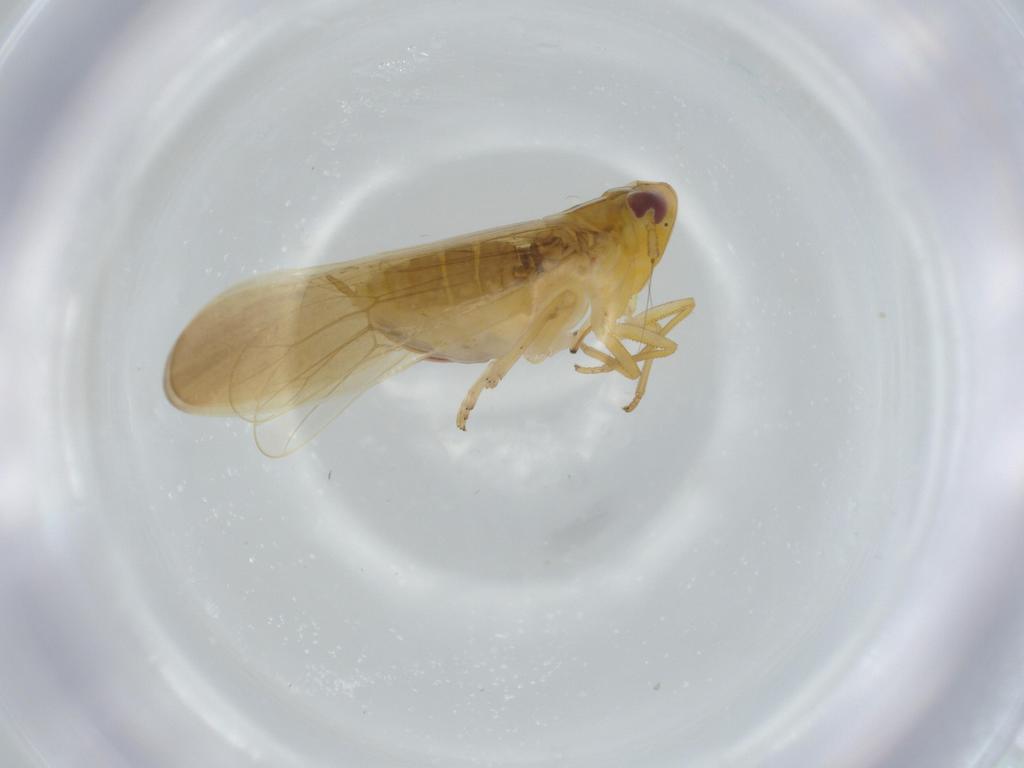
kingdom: Animalia
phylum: Arthropoda
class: Insecta
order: Hemiptera
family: Delphacidae
